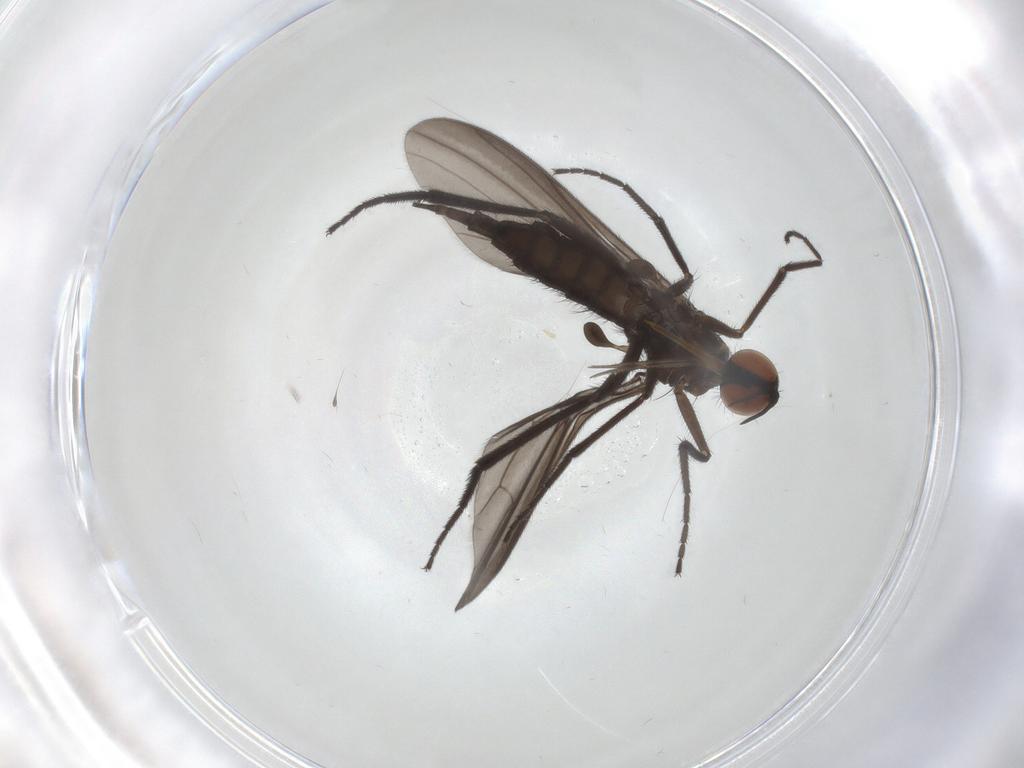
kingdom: Animalia
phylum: Arthropoda
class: Insecta
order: Diptera
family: Empididae
